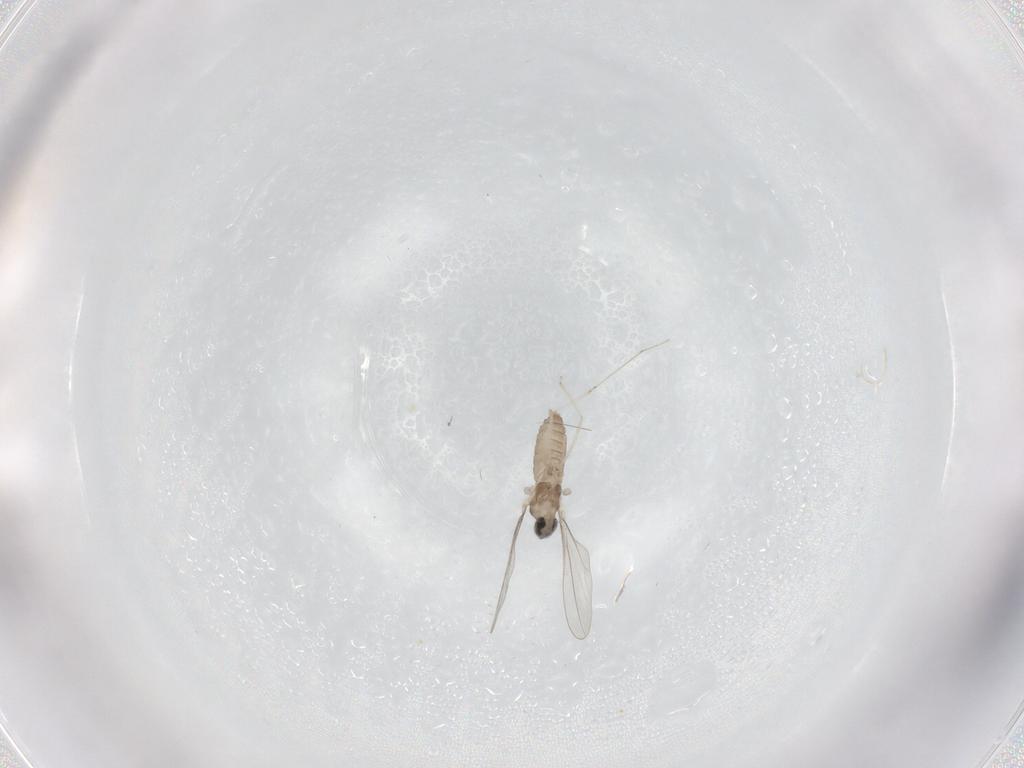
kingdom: Animalia
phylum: Arthropoda
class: Insecta
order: Diptera
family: Cecidomyiidae
